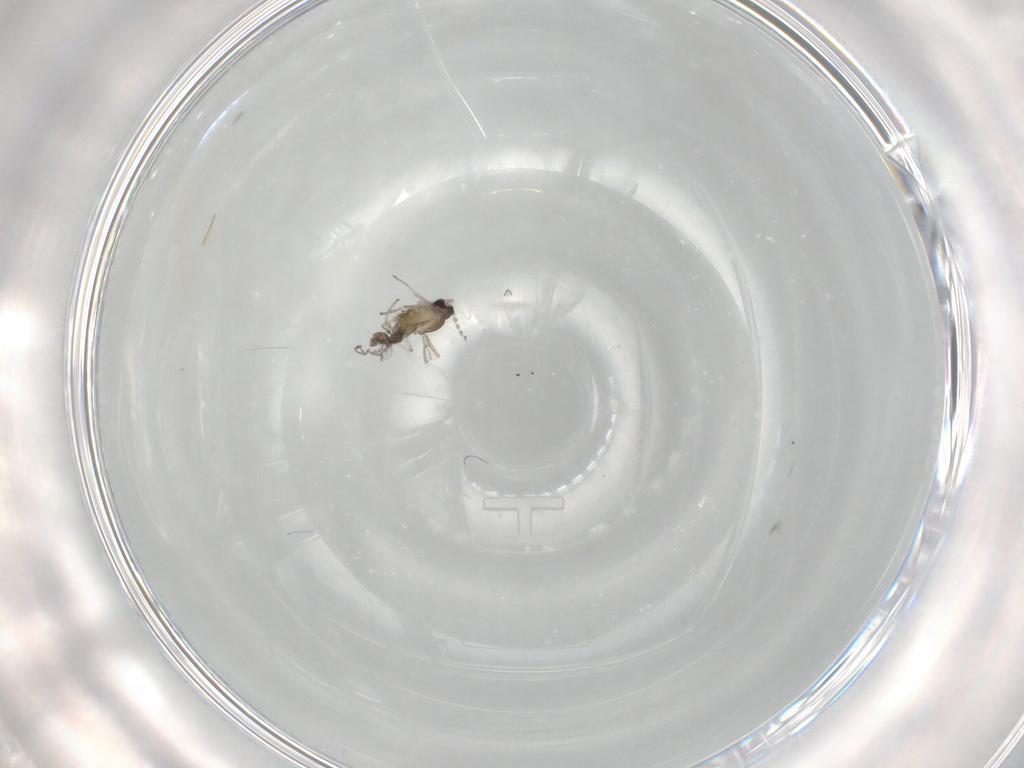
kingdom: Animalia
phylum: Arthropoda
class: Insecta
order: Diptera
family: Cecidomyiidae
